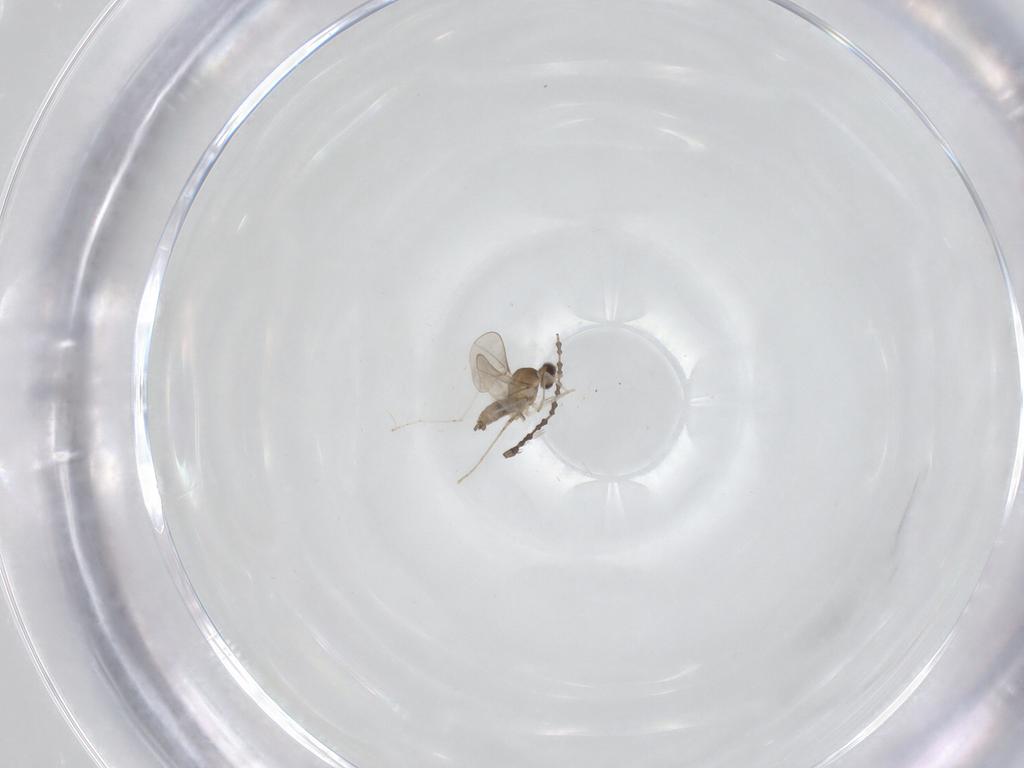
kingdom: Animalia
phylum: Arthropoda
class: Insecta
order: Diptera
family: Cecidomyiidae
